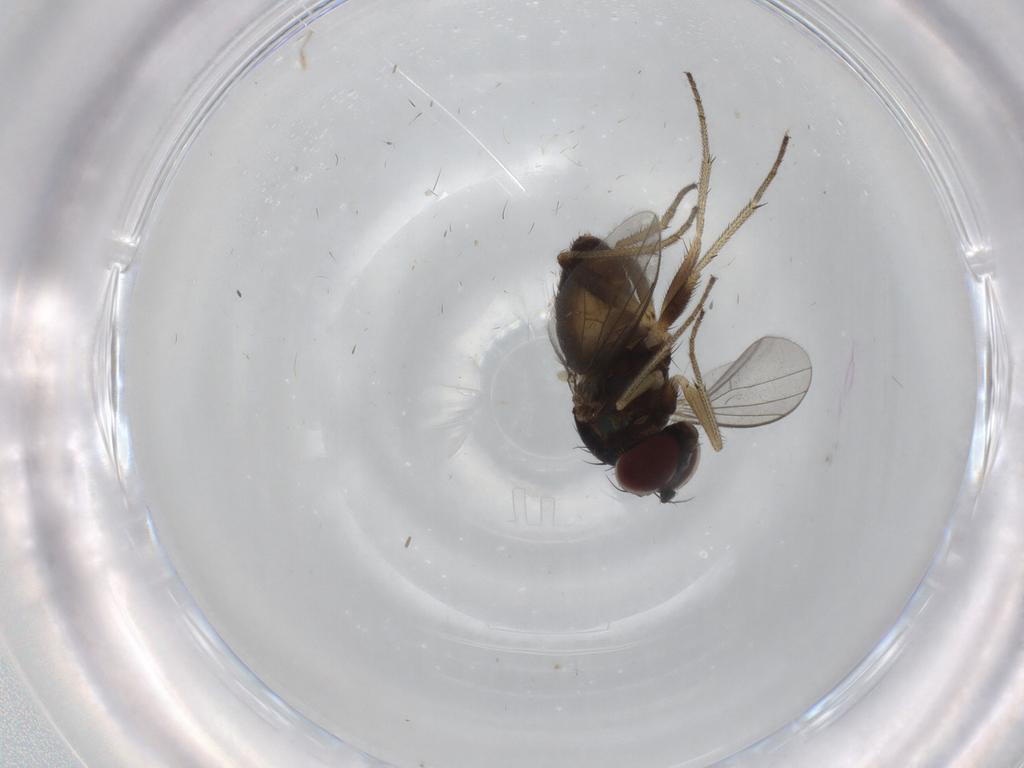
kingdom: Animalia
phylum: Arthropoda
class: Insecta
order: Diptera
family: Dolichopodidae
